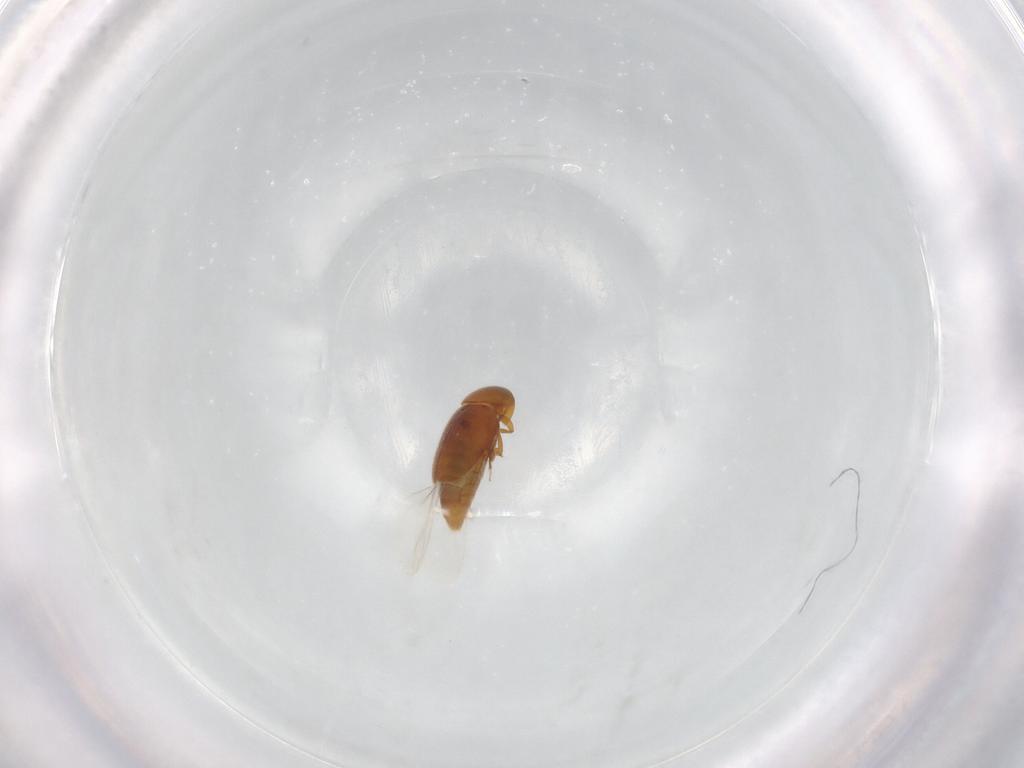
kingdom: Animalia
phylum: Arthropoda
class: Insecta
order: Coleoptera
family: Corylophidae
